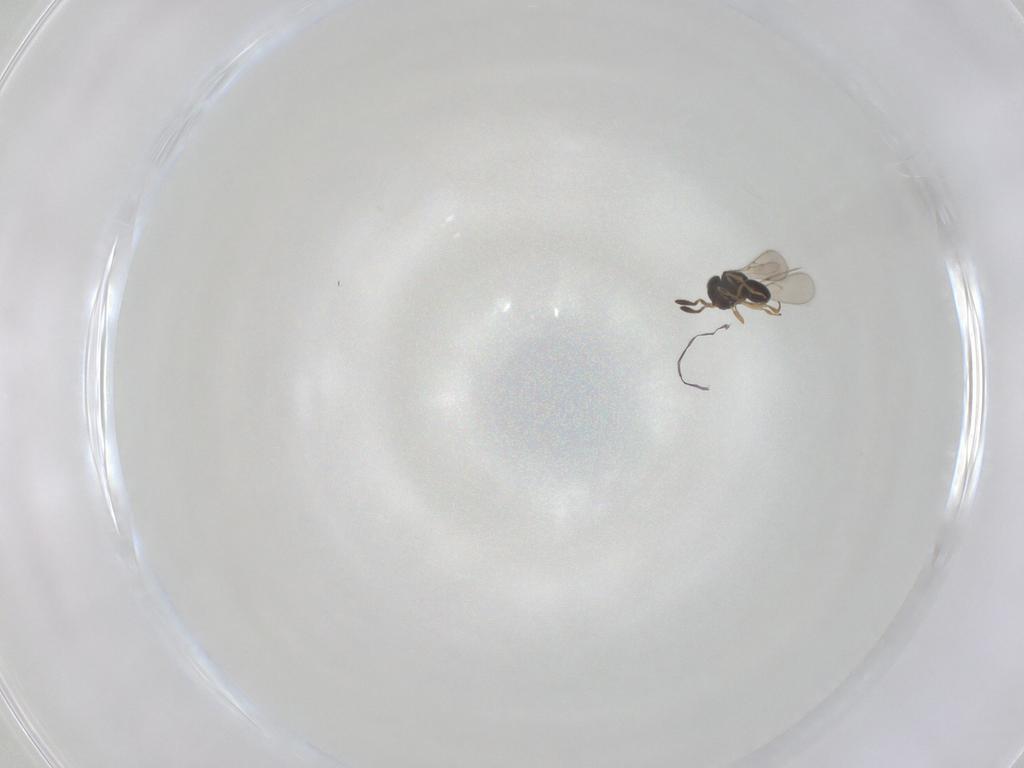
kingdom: Animalia
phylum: Arthropoda
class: Insecta
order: Hymenoptera
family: Scelionidae
